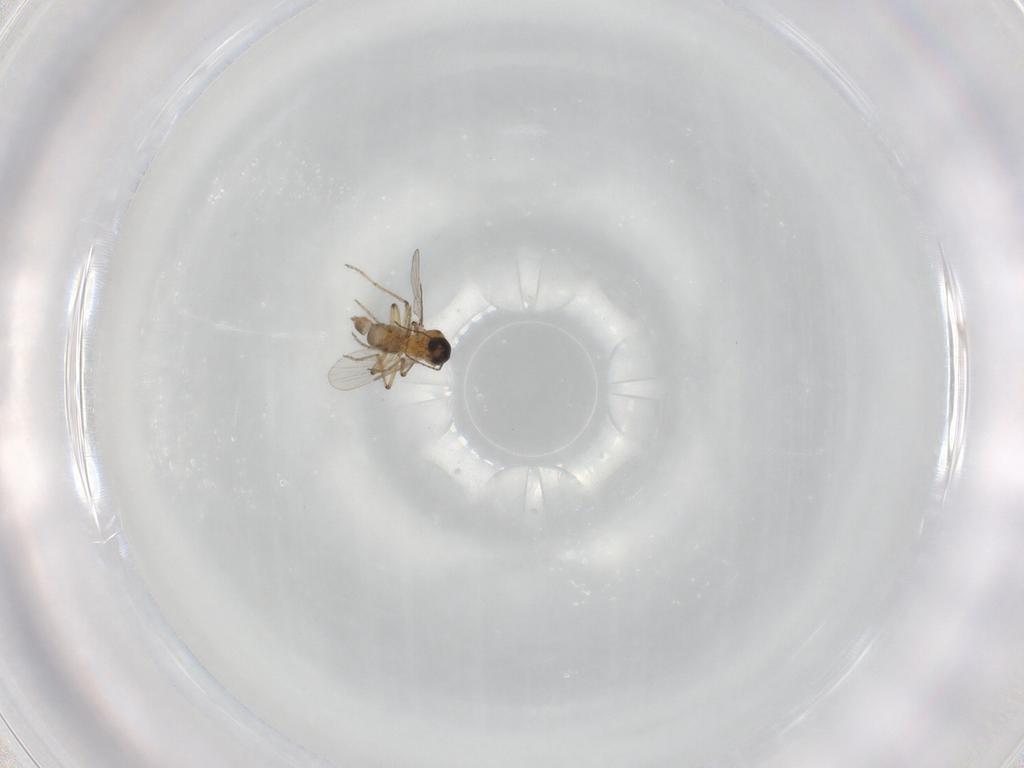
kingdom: Animalia
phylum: Arthropoda
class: Insecta
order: Diptera
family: Ceratopogonidae
